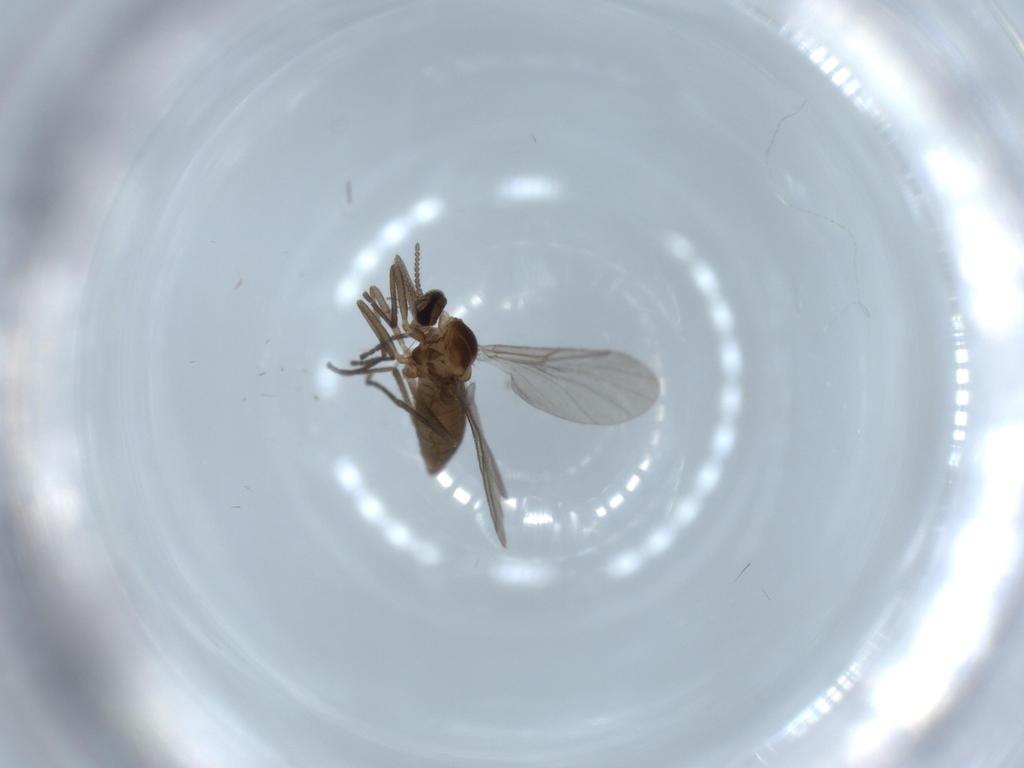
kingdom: Animalia
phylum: Arthropoda
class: Insecta
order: Diptera
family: Cecidomyiidae
